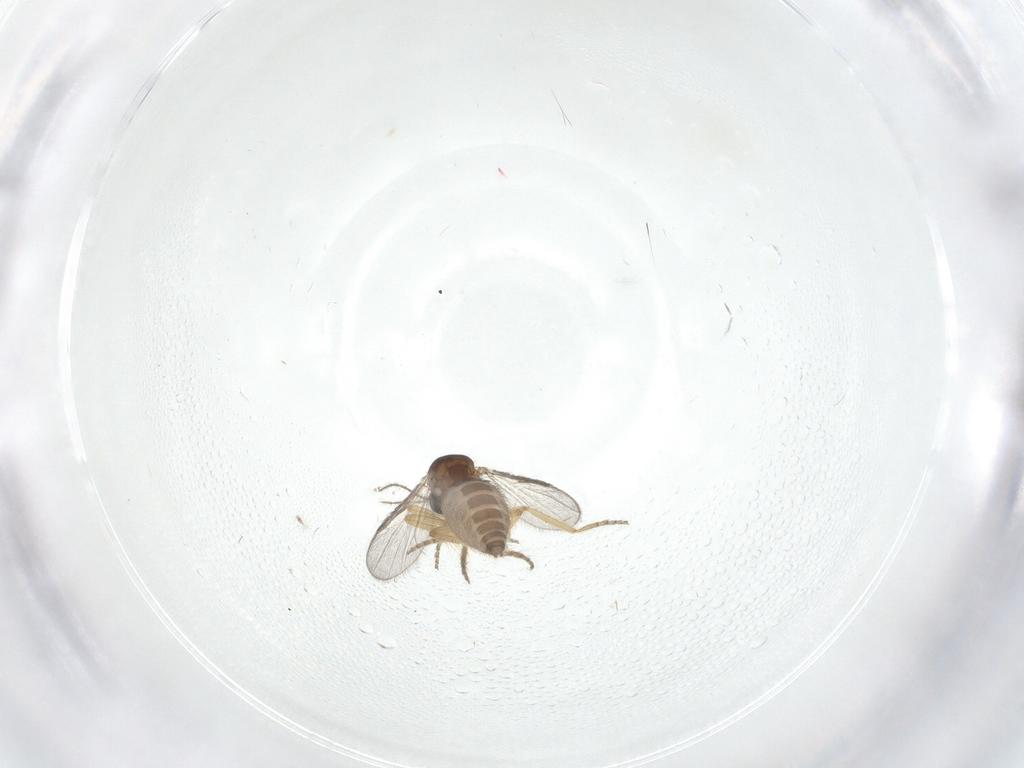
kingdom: Animalia
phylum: Arthropoda
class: Insecta
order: Diptera
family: Ceratopogonidae
